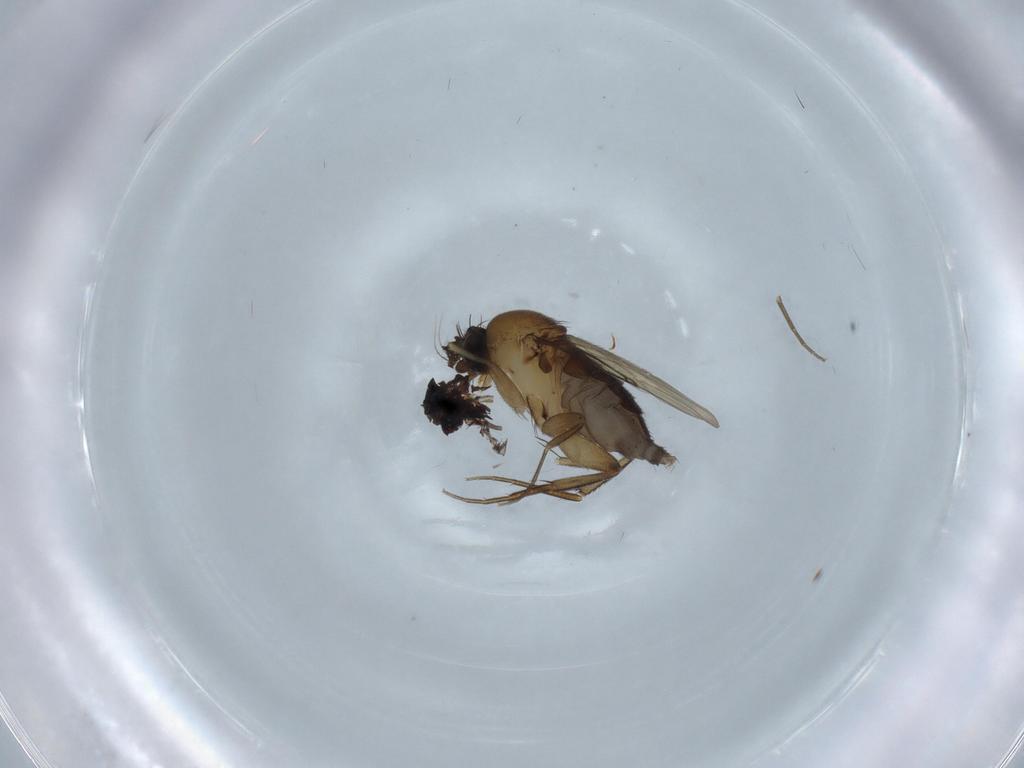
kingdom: Animalia
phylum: Arthropoda
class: Insecta
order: Diptera
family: Phoridae
